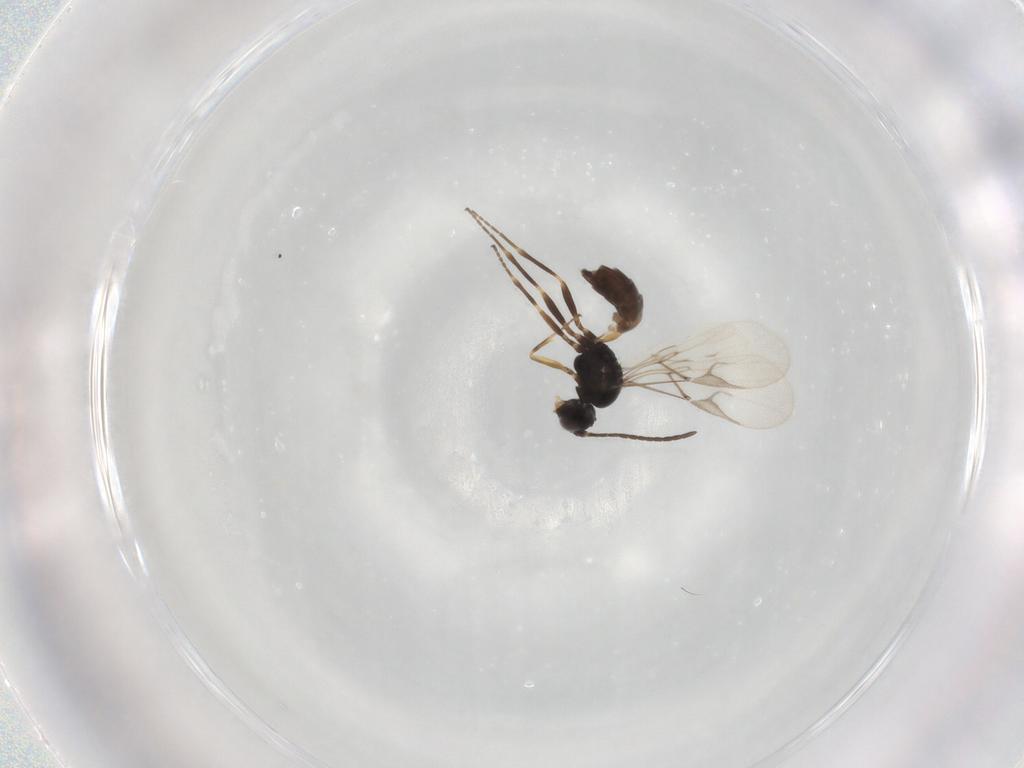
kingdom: Animalia
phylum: Arthropoda
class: Insecta
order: Hymenoptera
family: Braconidae
